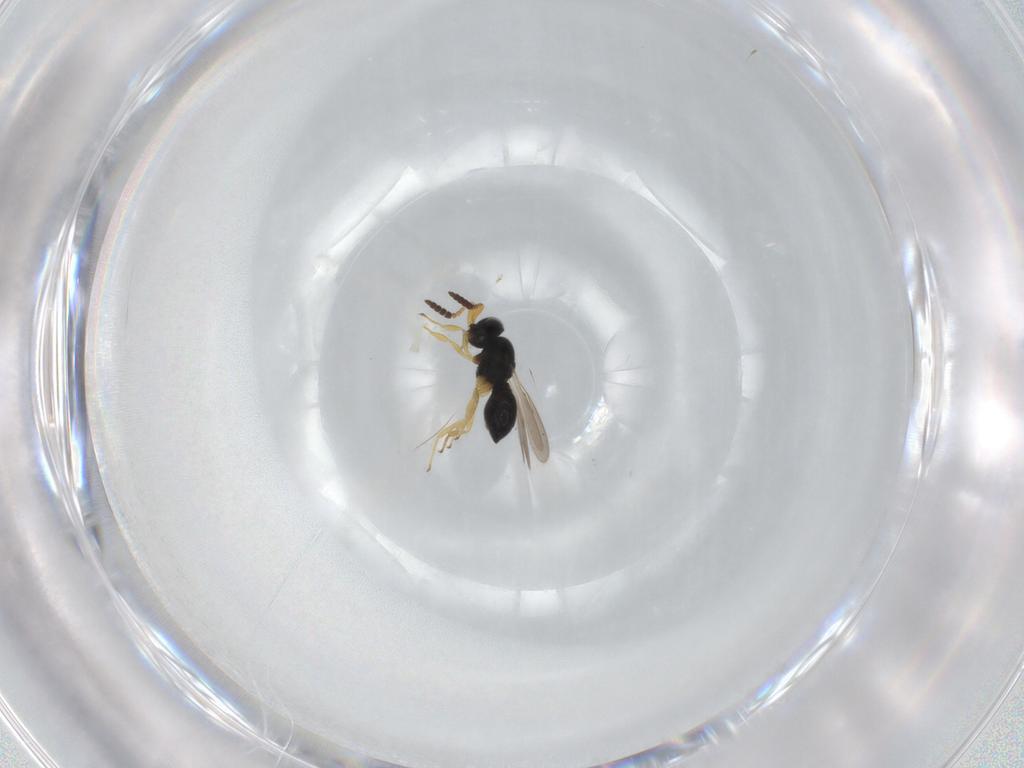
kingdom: Animalia
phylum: Arthropoda
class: Insecta
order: Hymenoptera
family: Scelionidae
